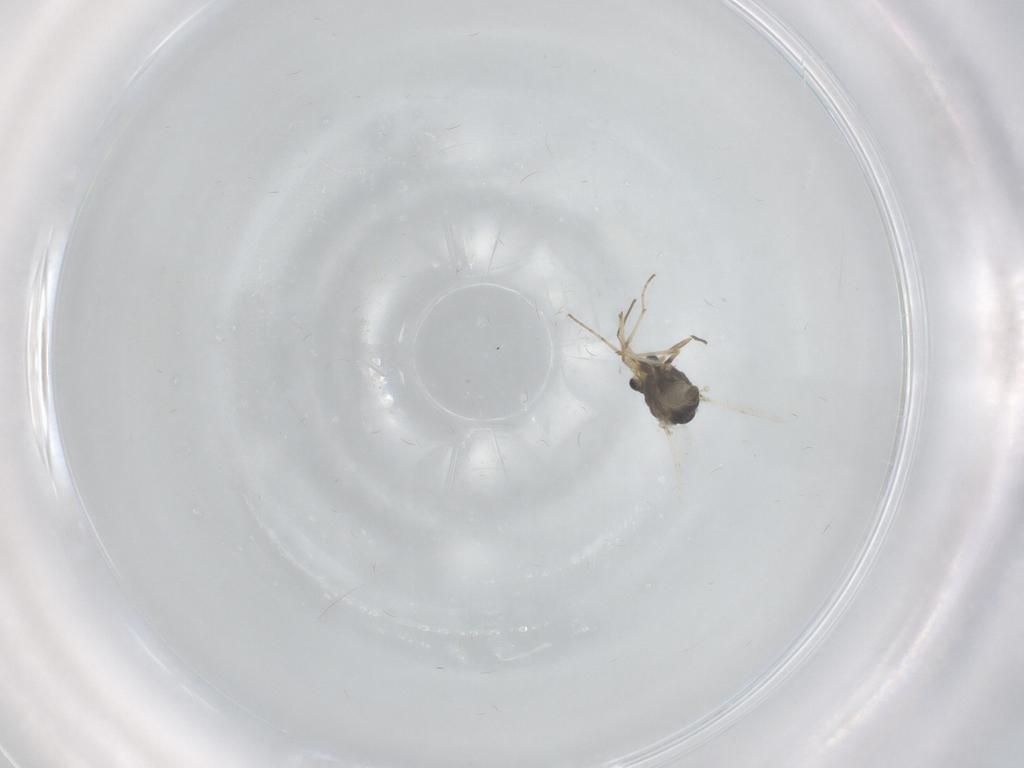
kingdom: Animalia
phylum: Arthropoda
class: Insecta
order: Diptera
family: Chironomidae
